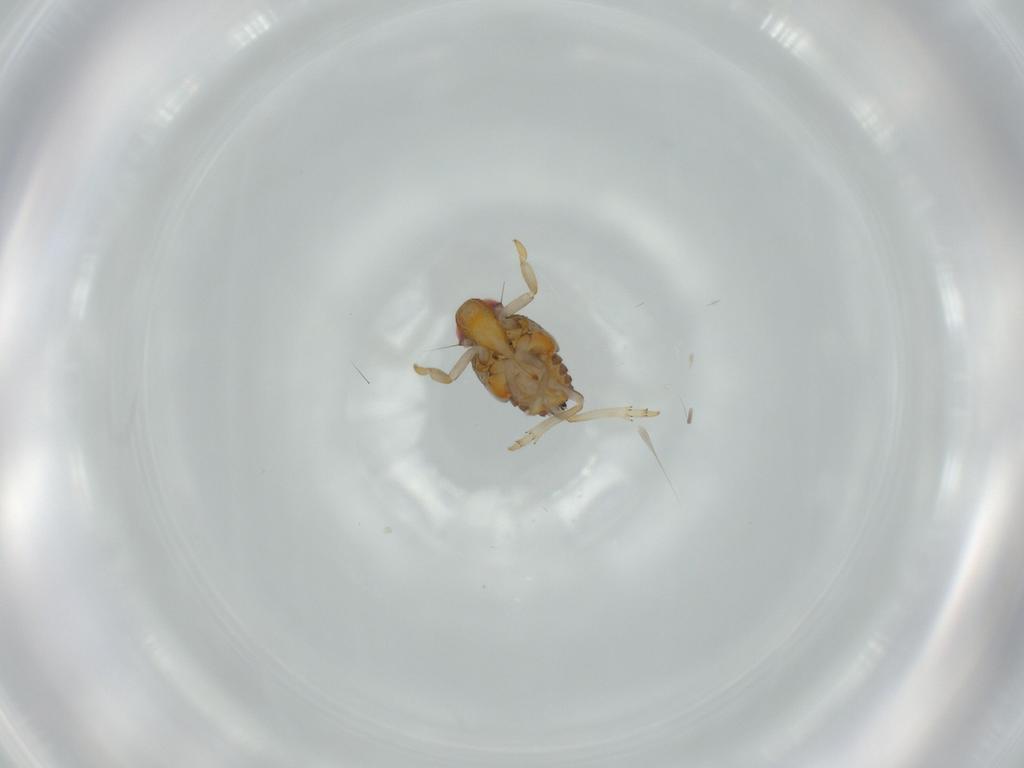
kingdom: Animalia
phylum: Arthropoda
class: Insecta
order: Hemiptera
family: Issidae
